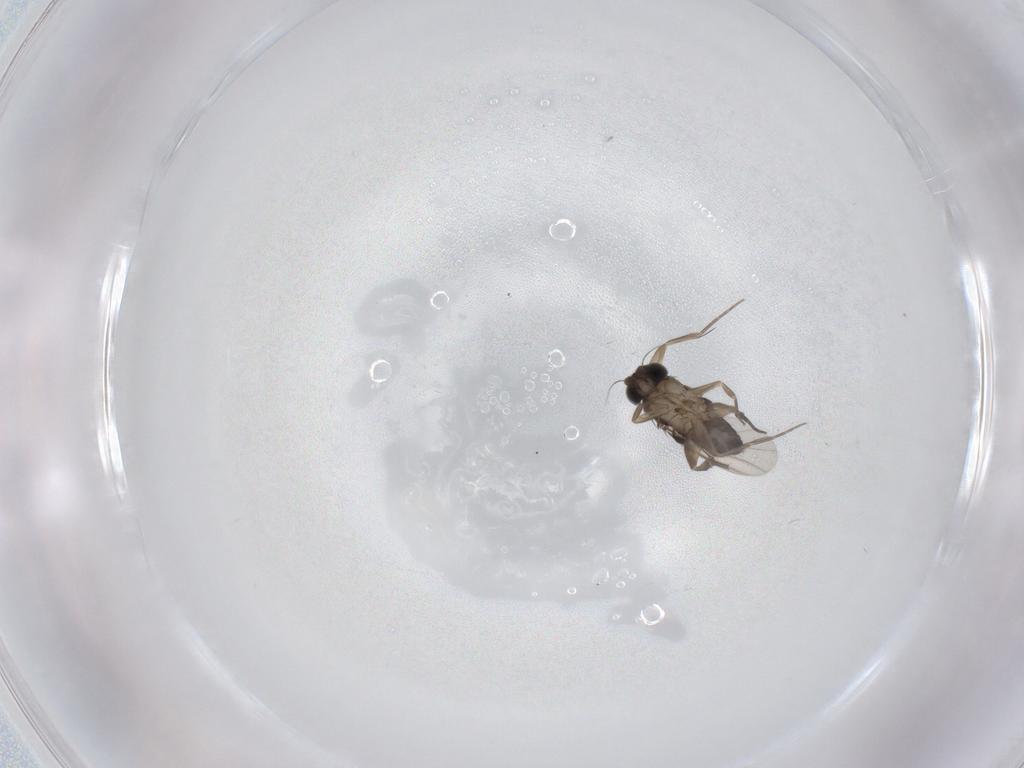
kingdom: Animalia
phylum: Arthropoda
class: Insecta
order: Diptera
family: Phoridae
